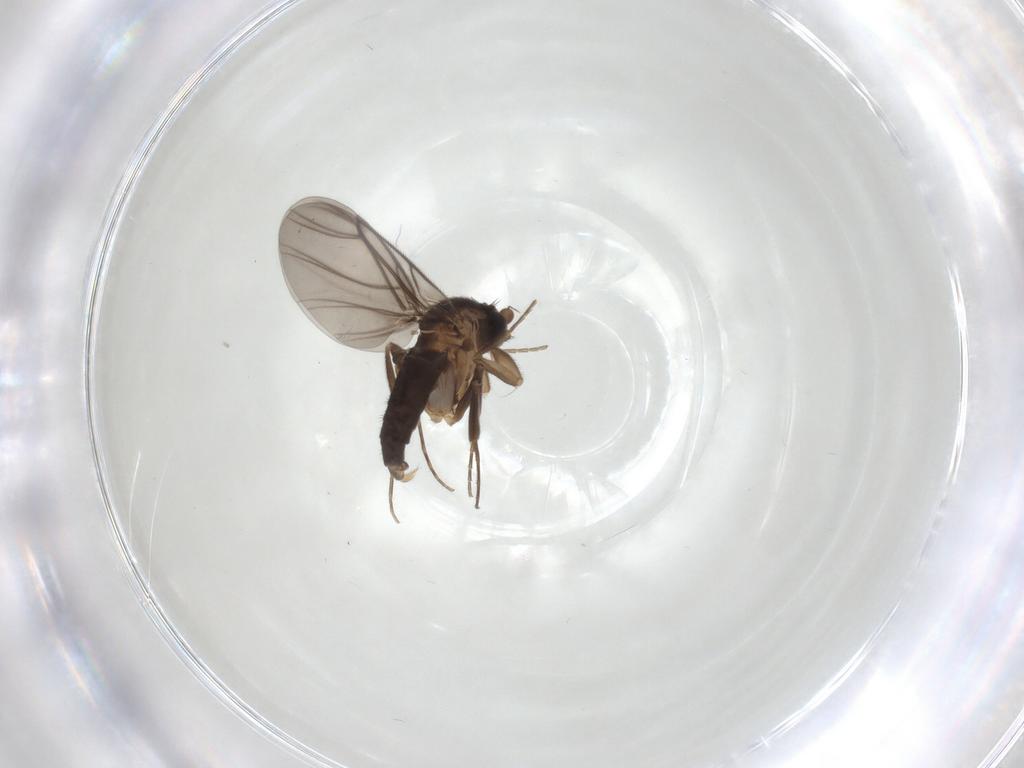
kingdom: Animalia
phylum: Arthropoda
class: Insecta
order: Diptera
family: Phoridae
